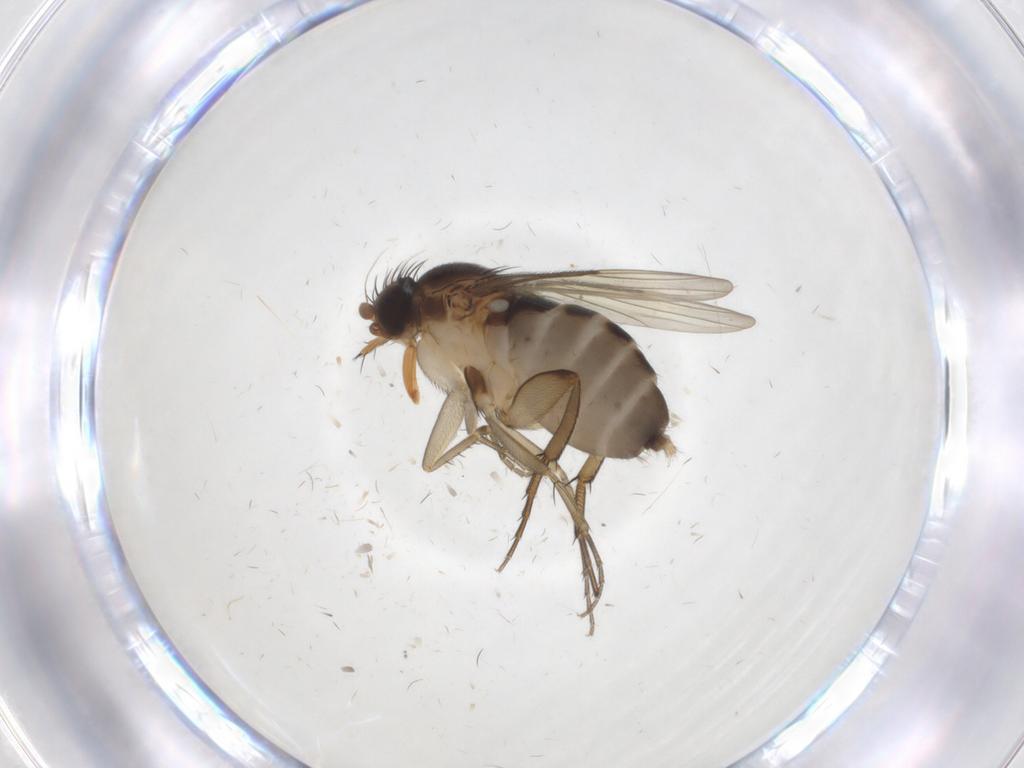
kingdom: Animalia
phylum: Arthropoda
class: Insecta
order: Diptera
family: Phoridae
